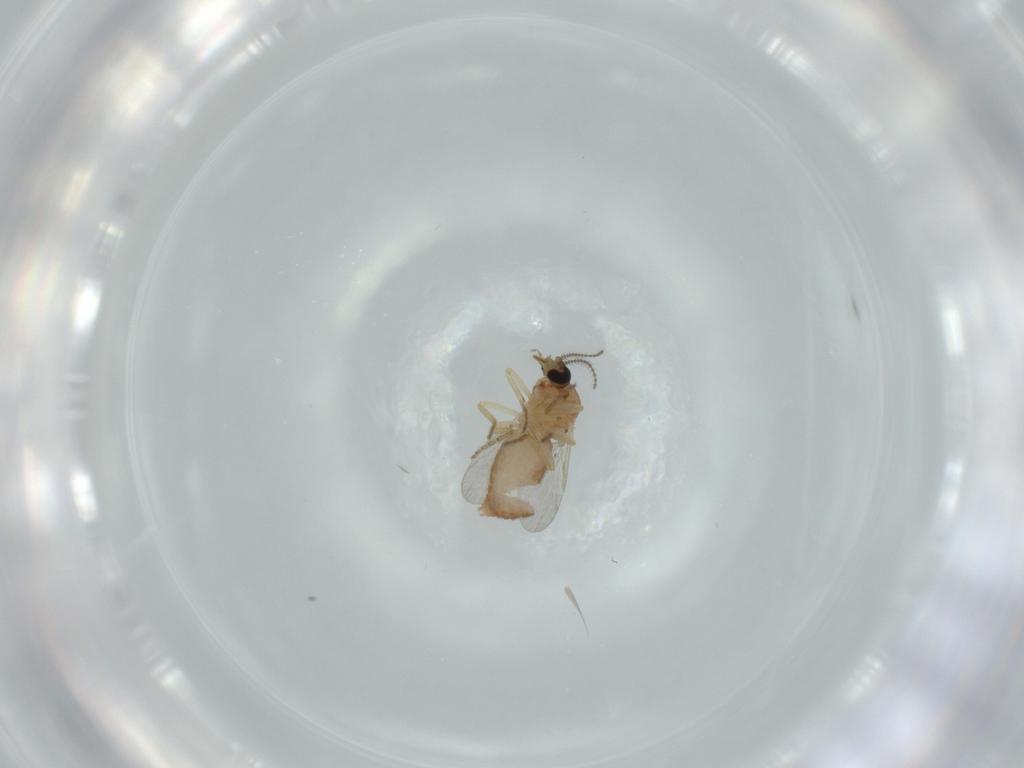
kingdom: Animalia
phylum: Arthropoda
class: Insecta
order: Diptera
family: Ceratopogonidae
